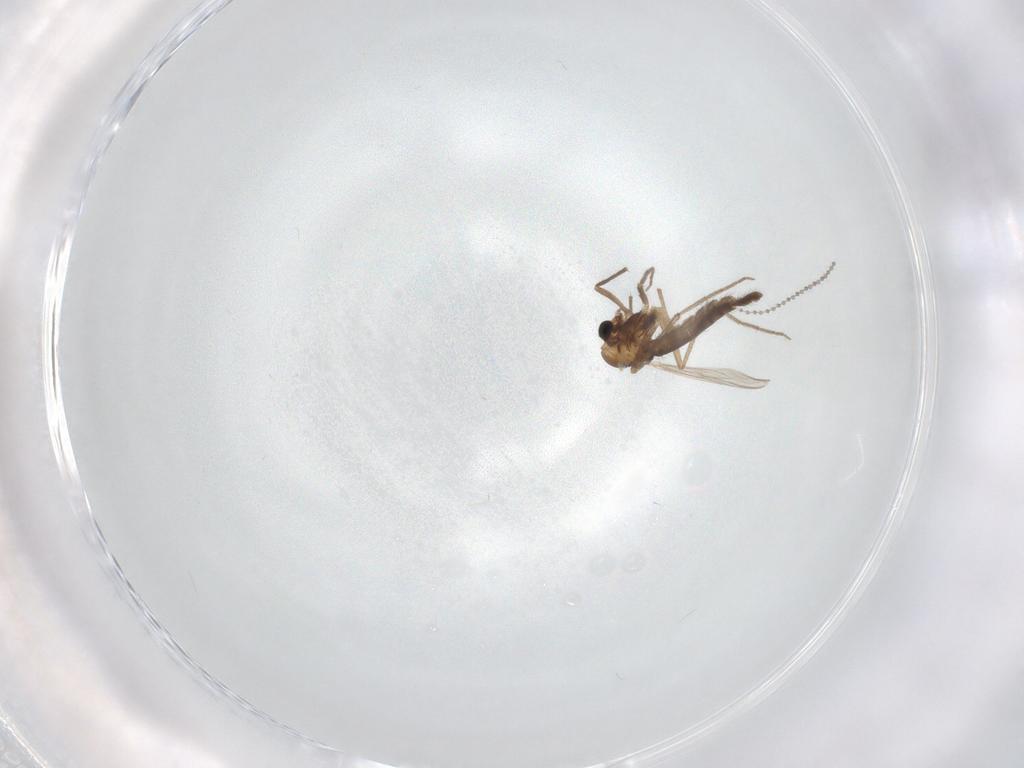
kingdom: Animalia
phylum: Arthropoda
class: Insecta
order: Diptera
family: Chironomidae
